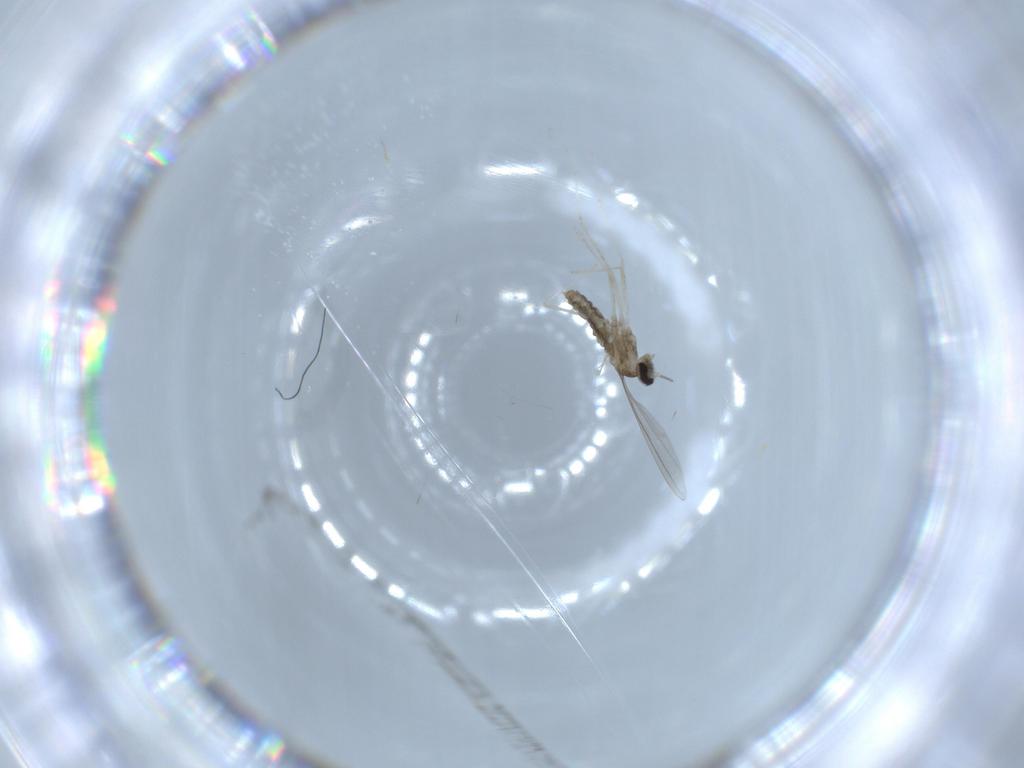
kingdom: Animalia
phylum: Arthropoda
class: Insecta
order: Diptera
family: Cecidomyiidae
